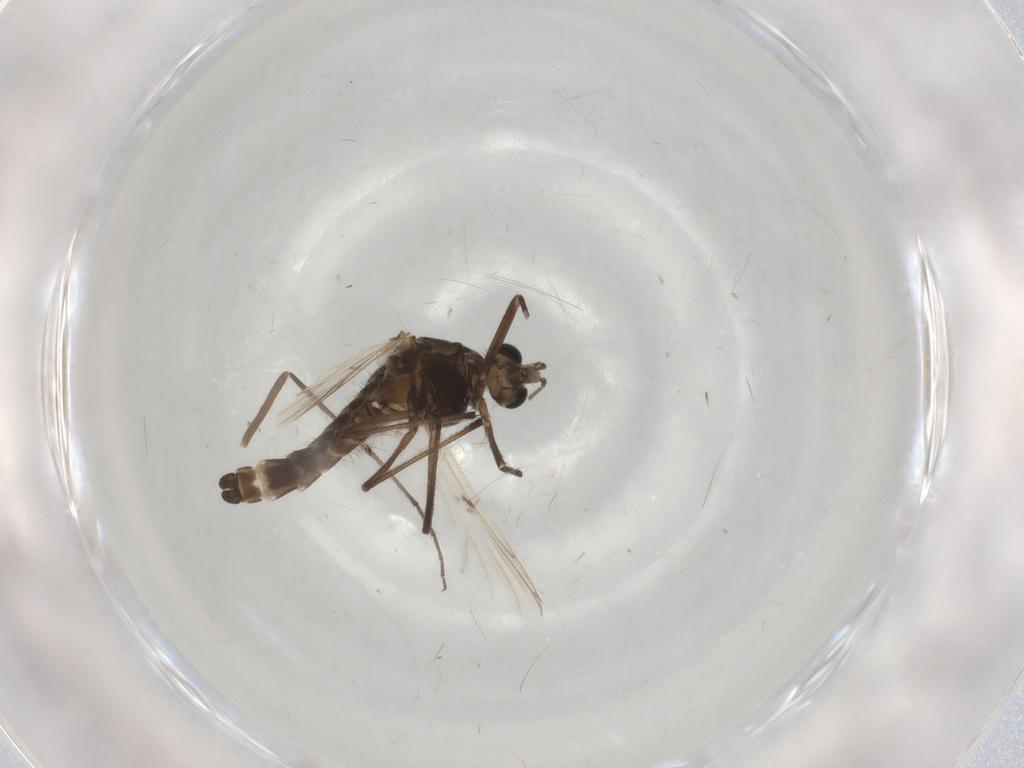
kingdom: Animalia
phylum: Arthropoda
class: Insecta
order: Diptera
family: Chironomidae
